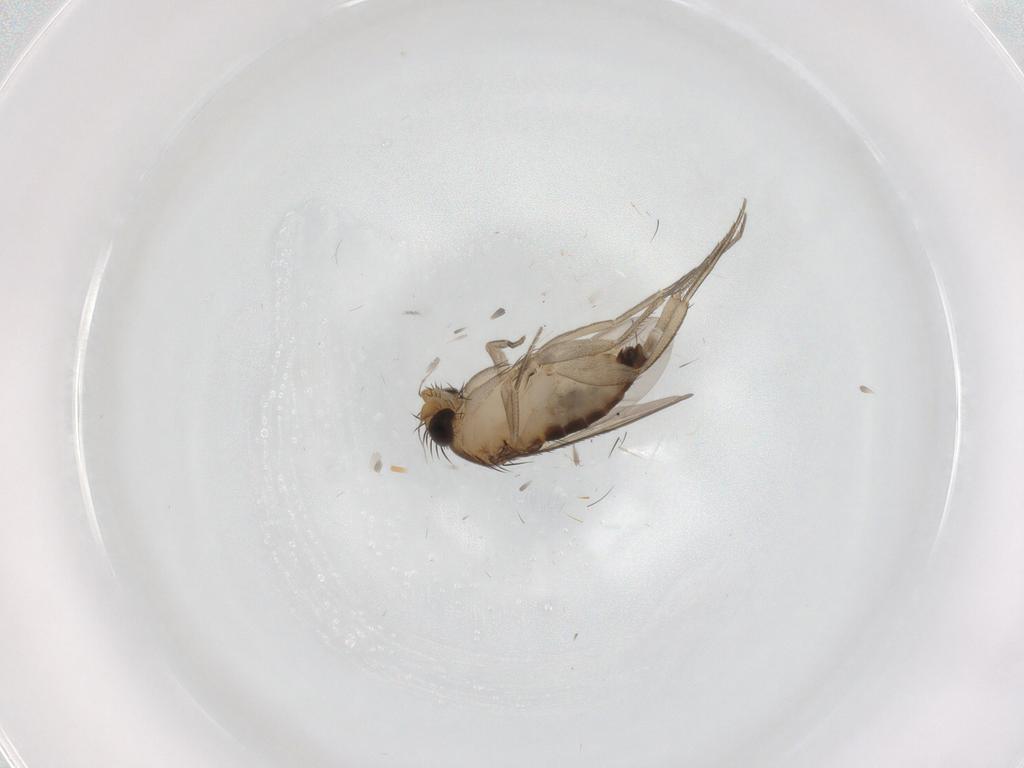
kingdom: Animalia
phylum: Arthropoda
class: Insecta
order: Diptera
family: Phoridae
